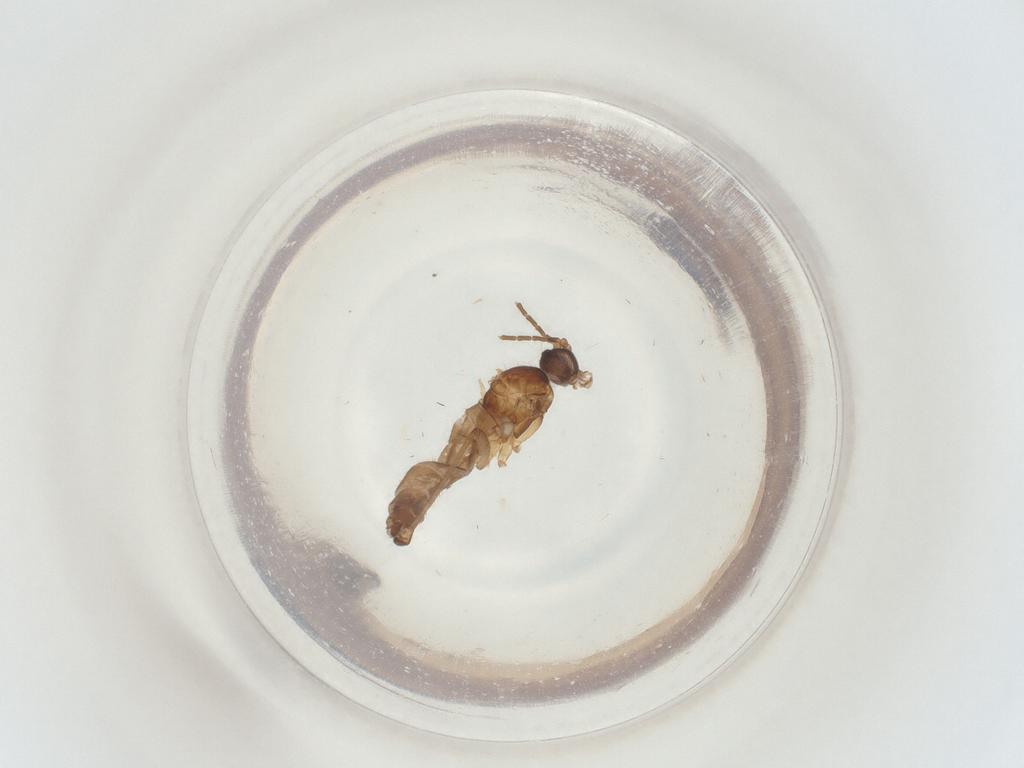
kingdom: Animalia
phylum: Arthropoda
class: Insecta
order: Diptera
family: Sciaridae
